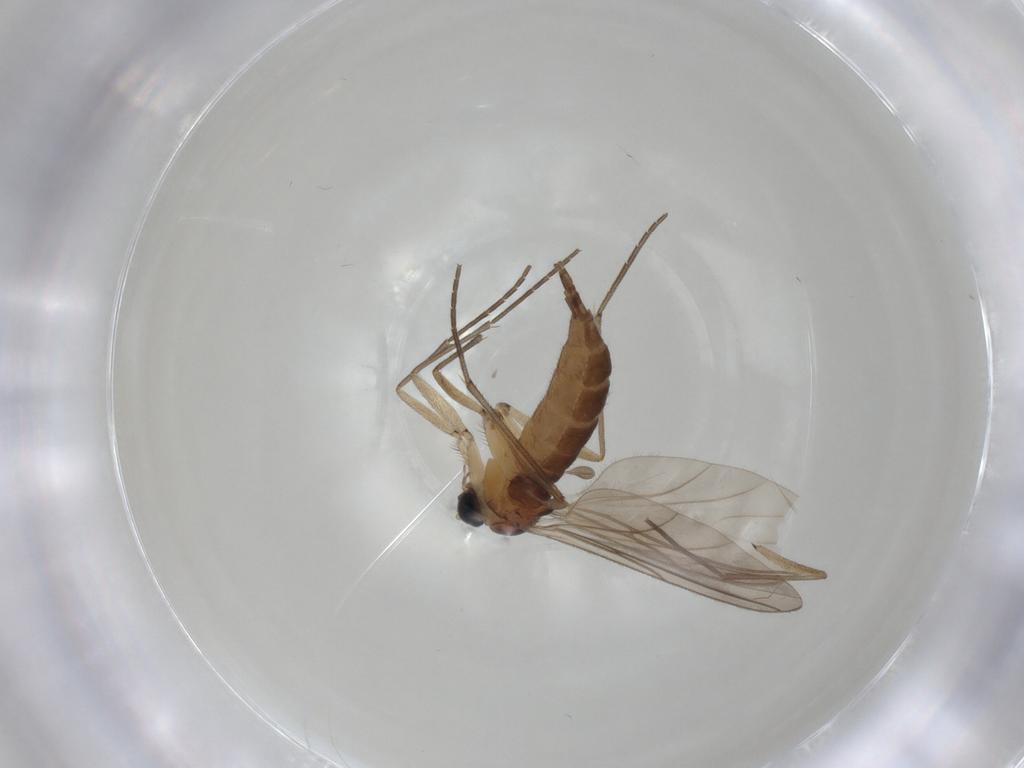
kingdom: Animalia
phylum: Arthropoda
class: Insecta
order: Diptera
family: Sciaridae
